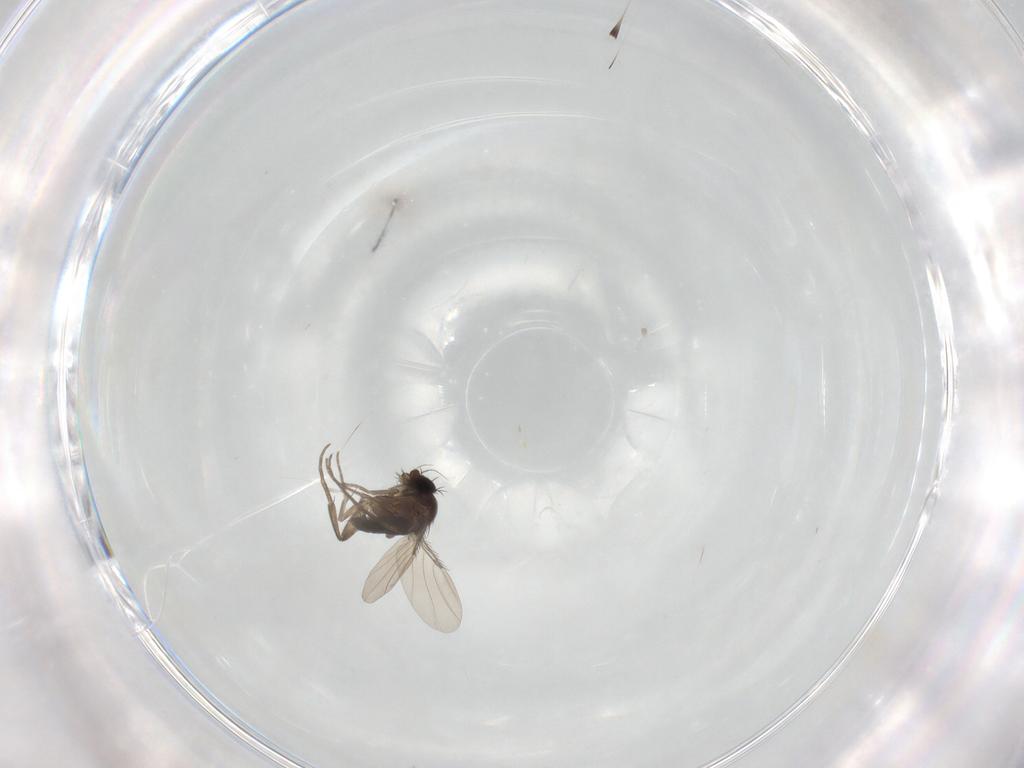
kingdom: Animalia
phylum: Arthropoda
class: Insecta
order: Diptera
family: Phoridae
